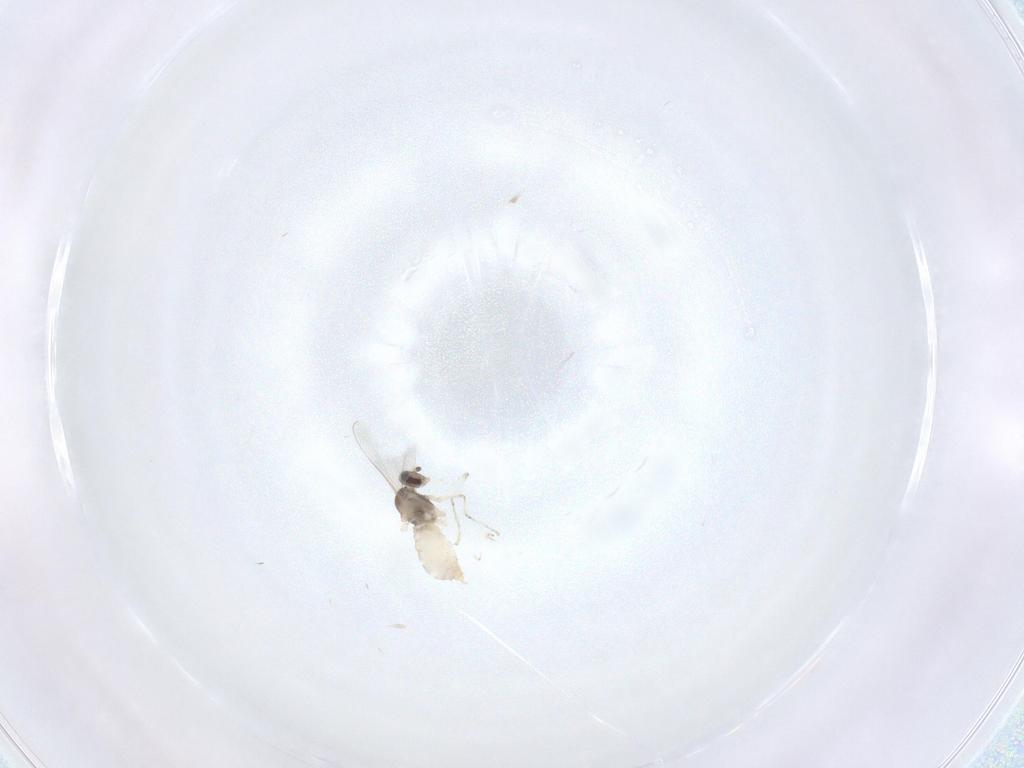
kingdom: Animalia
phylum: Arthropoda
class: Insecta
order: Diptera
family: Cecidomyiidae
